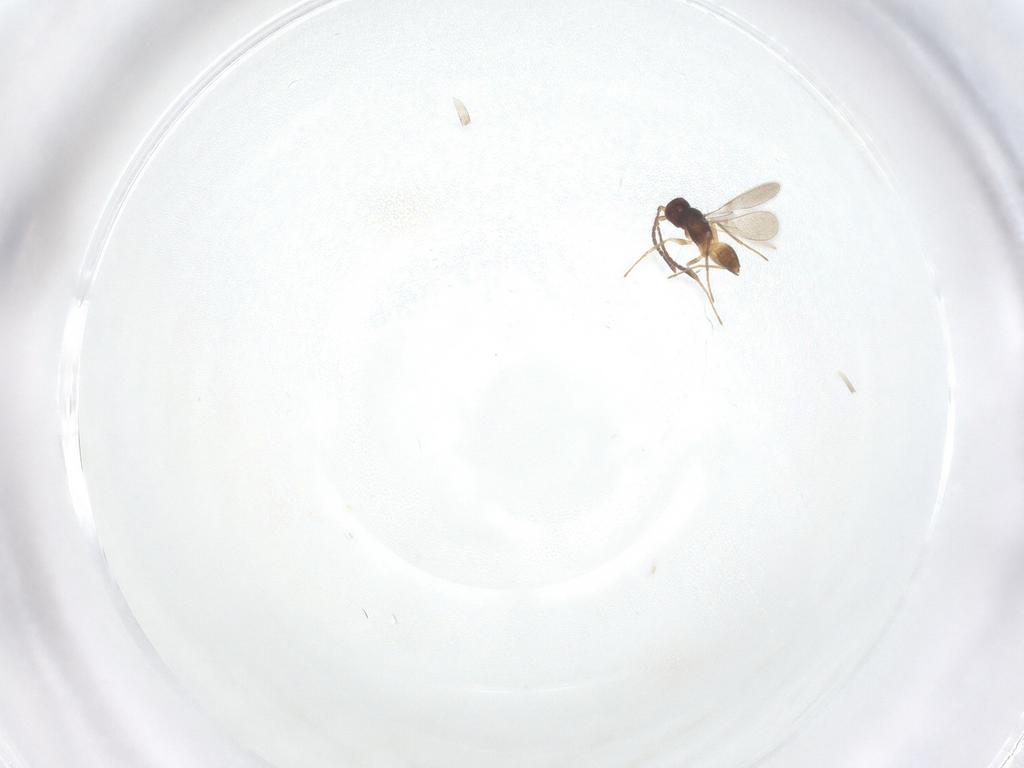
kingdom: Animalia
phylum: Arthropoda
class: Insecta
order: Hymenoptera
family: Mymaridae
